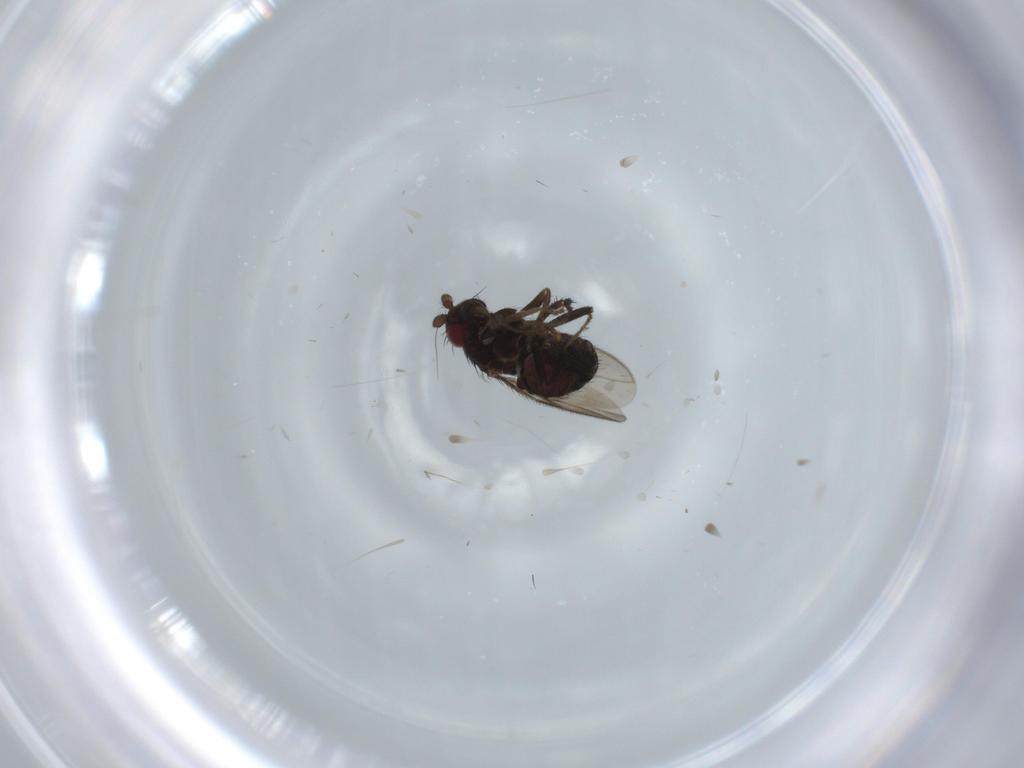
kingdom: Animalia
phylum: Arthropoda
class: Insecta
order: Diptera
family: Sphaeroceridae
